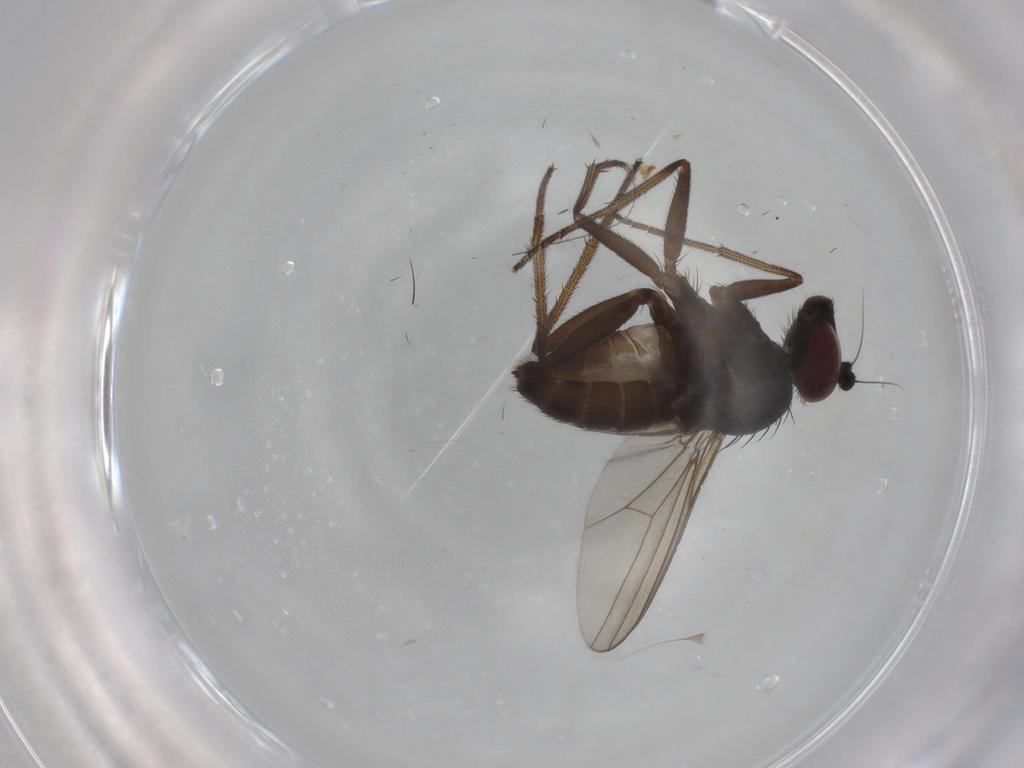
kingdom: Animalia
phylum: Arthropoda
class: Insecta
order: Diptera
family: Dolichopodidae
